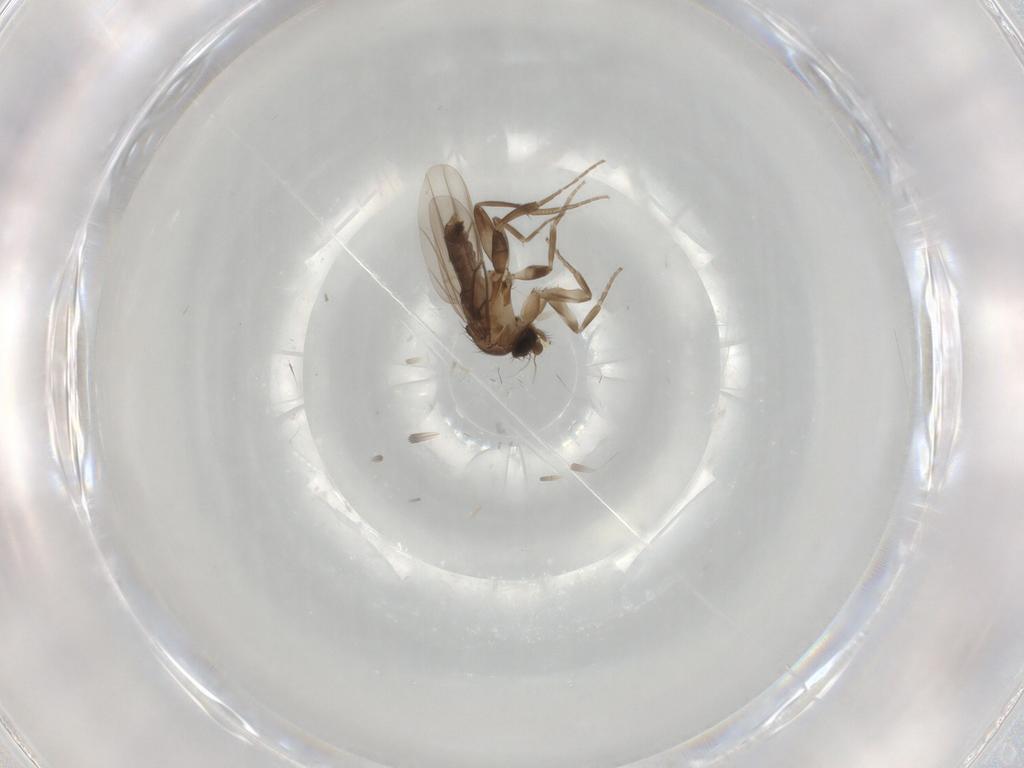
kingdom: Animalia
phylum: Arthropoda
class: Insecta
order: Diptera
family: Phoridae
